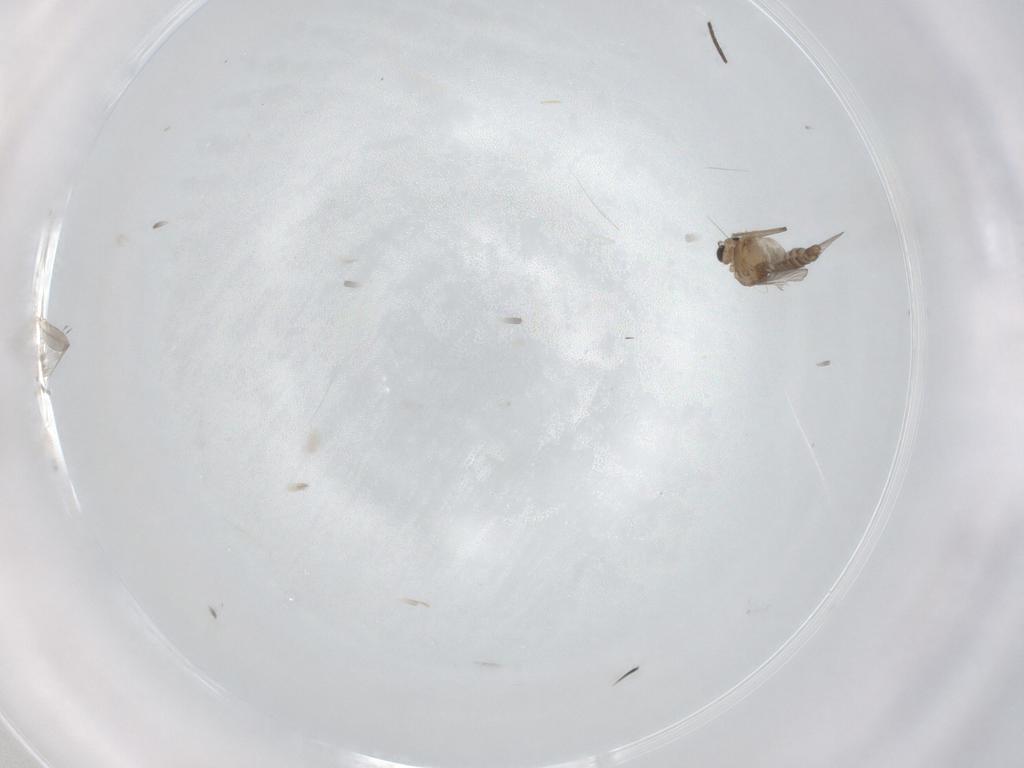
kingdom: Animalia
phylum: Arthropoda
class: Insecta
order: Diptera
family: Chironomidae
